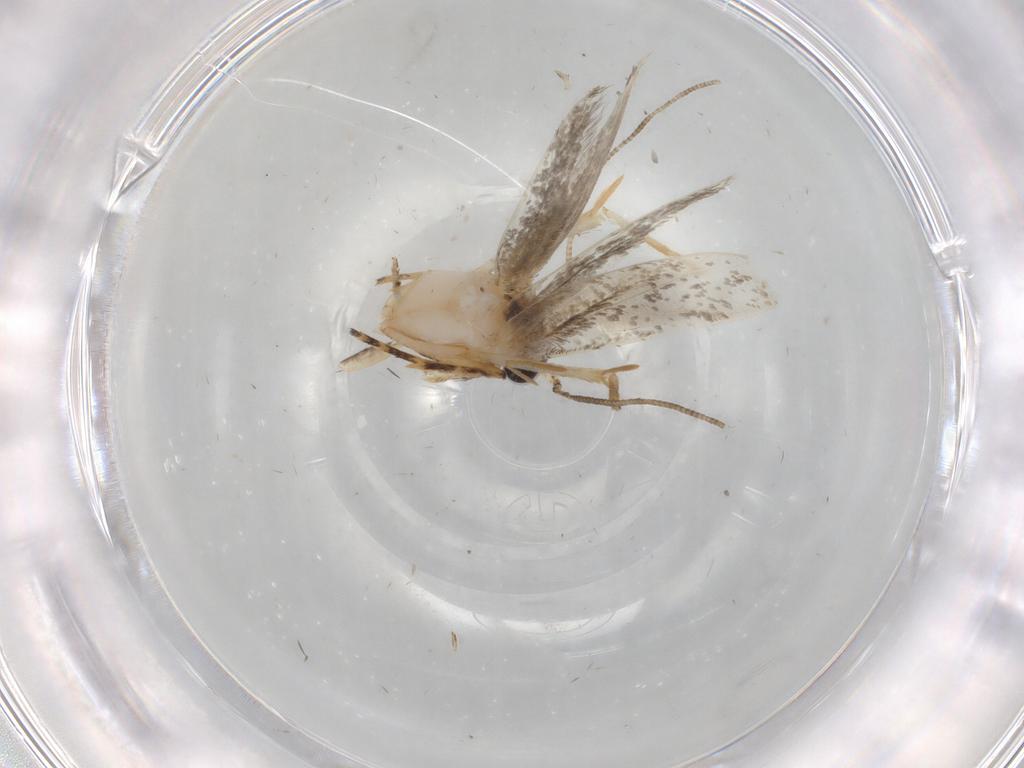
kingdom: Animalia
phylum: Arthropoda
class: Insecta
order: Lepidoptera
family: Tineidae
